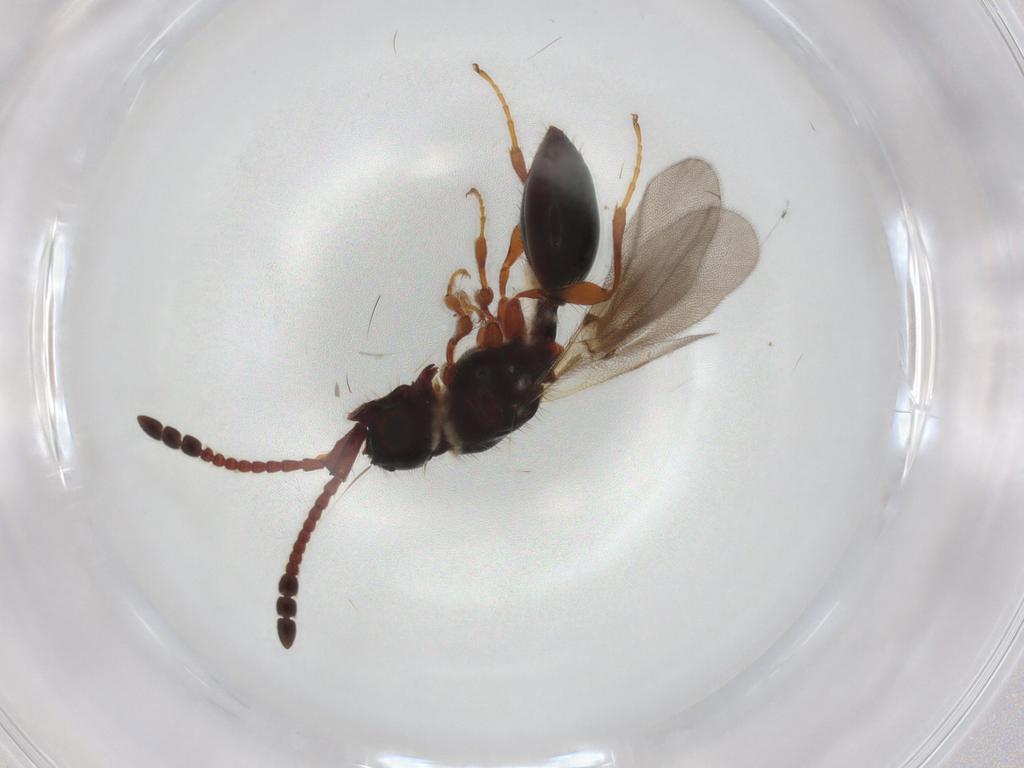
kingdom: Animalia
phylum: Arthropoda
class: Insecta
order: Hymenoptera
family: Diapriidae
